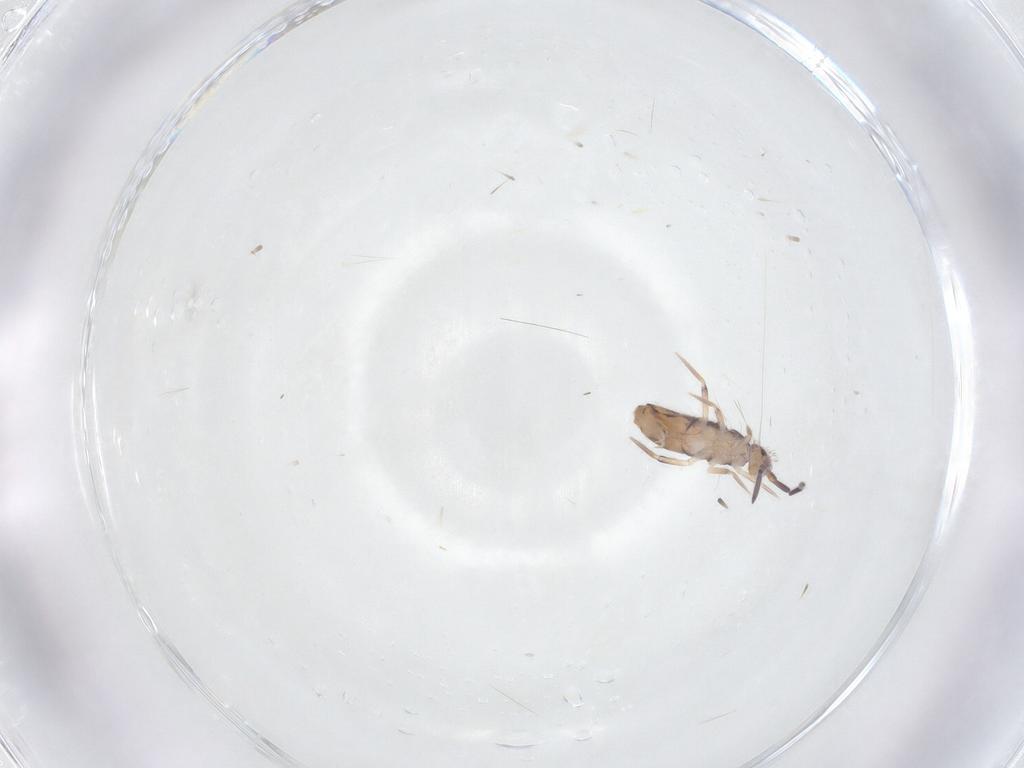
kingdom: Animalia
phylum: Arthropoda
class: Collembola
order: Entomobryomorpha
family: Entomobryidae
